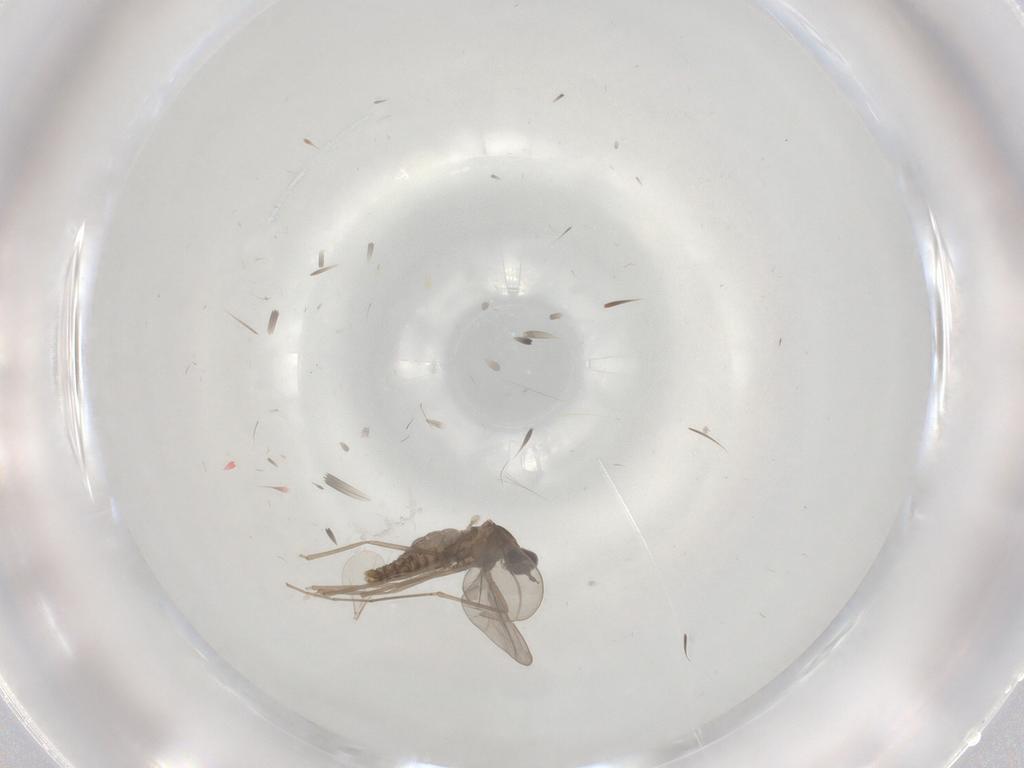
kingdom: Animalia
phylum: Arthropoda
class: Insecta
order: Diptera
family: Cecidomyiidae
